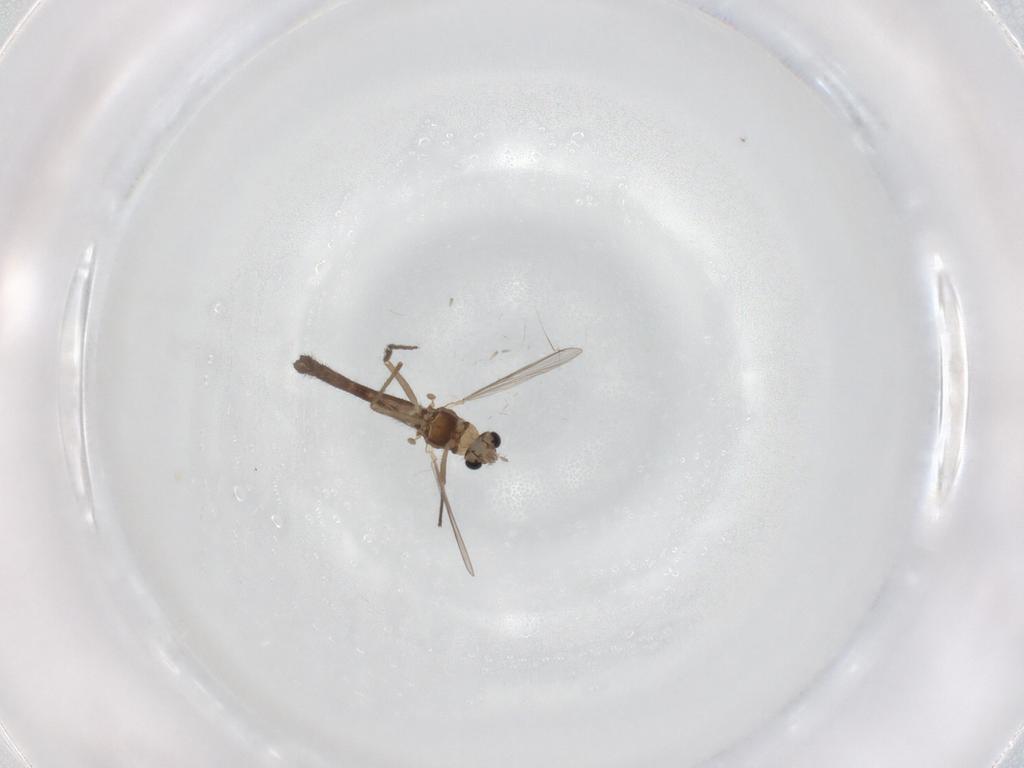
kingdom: Animalia
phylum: Arthropoda
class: Insecta
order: Diptera
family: Chironomidae
